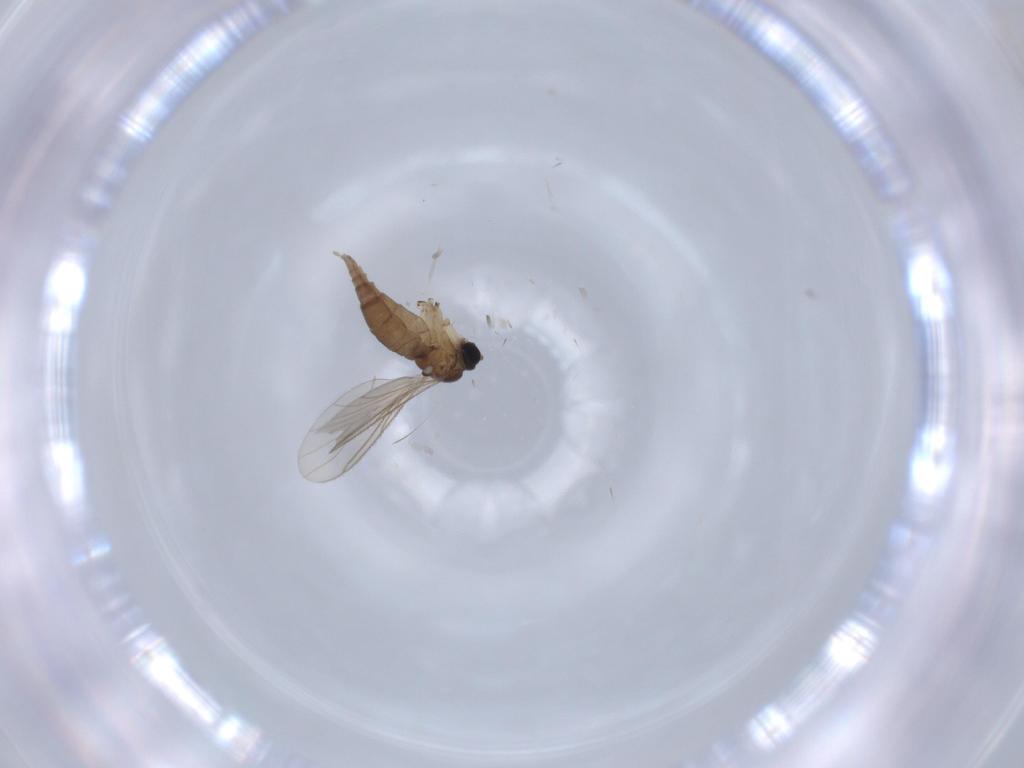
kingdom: Animalia
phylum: Arthropoda
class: Insecta
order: Diptera
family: Sciaridae
